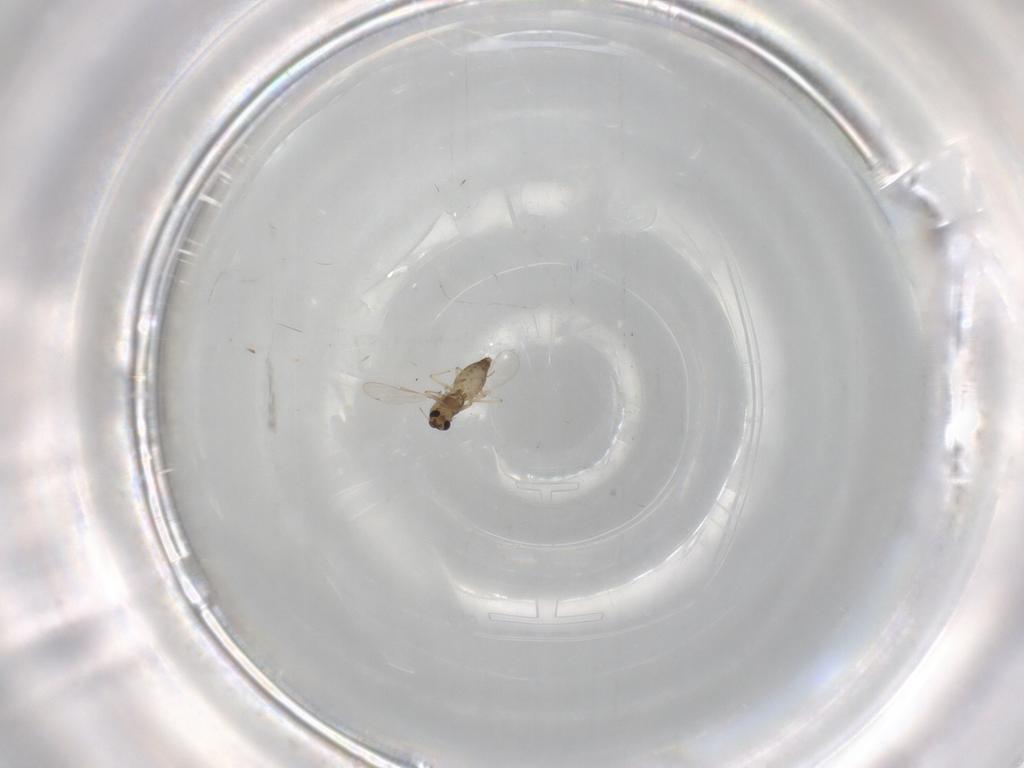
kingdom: Animalia
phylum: Arthropoda
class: Insecta
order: Diptera
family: Chironomidae
